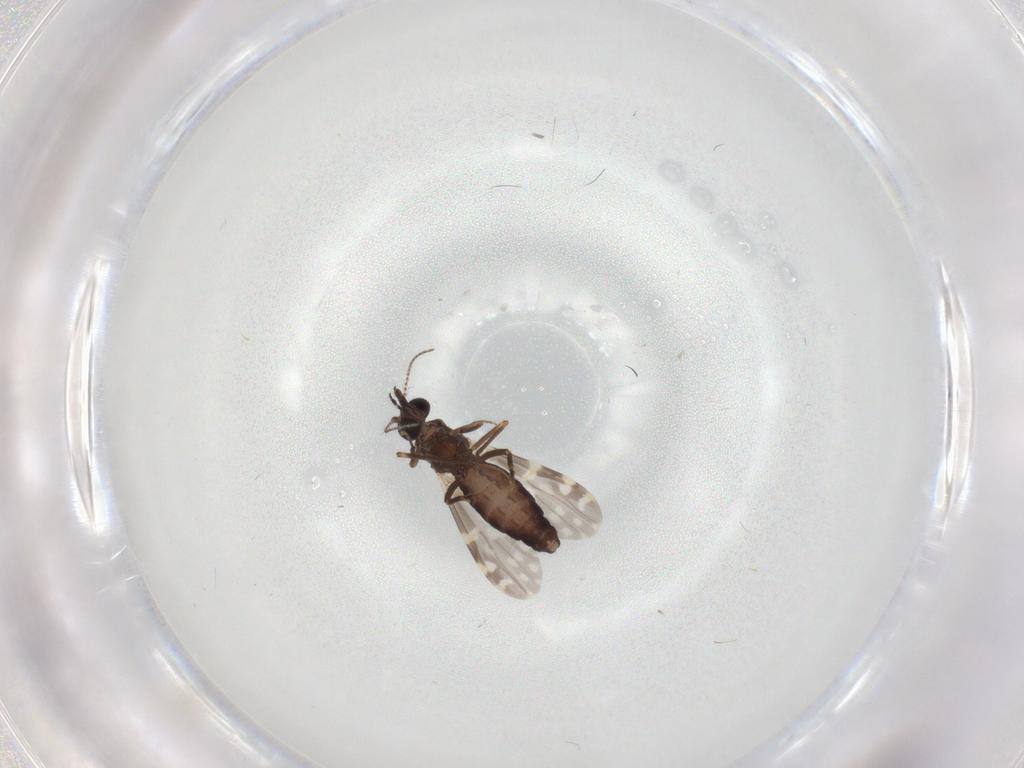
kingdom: Animalia
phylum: Arthropoda
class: Insecta
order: Diptera
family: Ceratopogonidae
